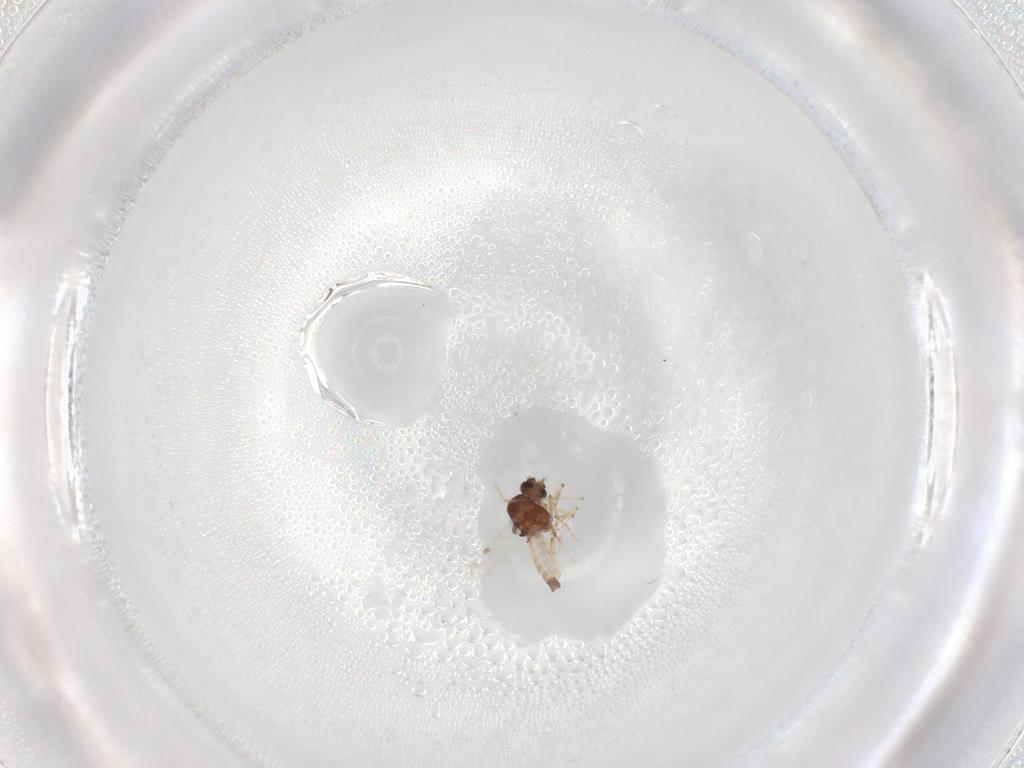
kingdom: Animalia
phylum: Arthropoda
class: Insecta
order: Diptera
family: Chironomidae
